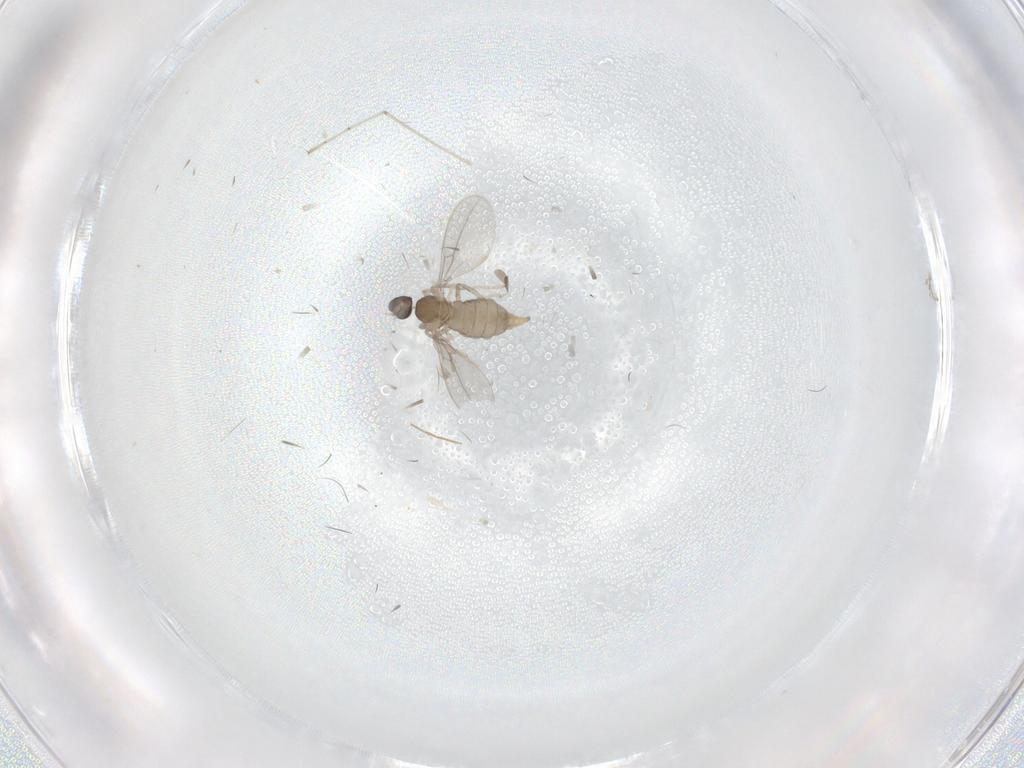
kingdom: Animalia
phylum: Arthropoda
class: Insecta
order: Diptera
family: Cecidomyiidae
